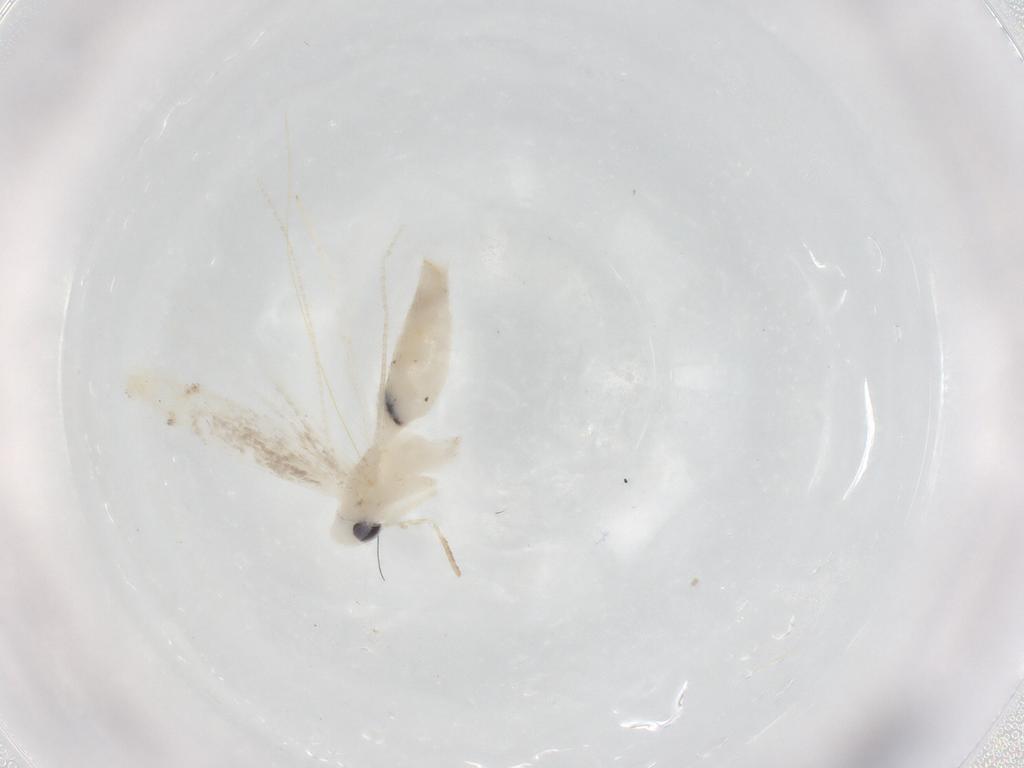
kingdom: Animalia
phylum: Arthropoda
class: Insecta
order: Lepidoptera
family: Gracillariidae
